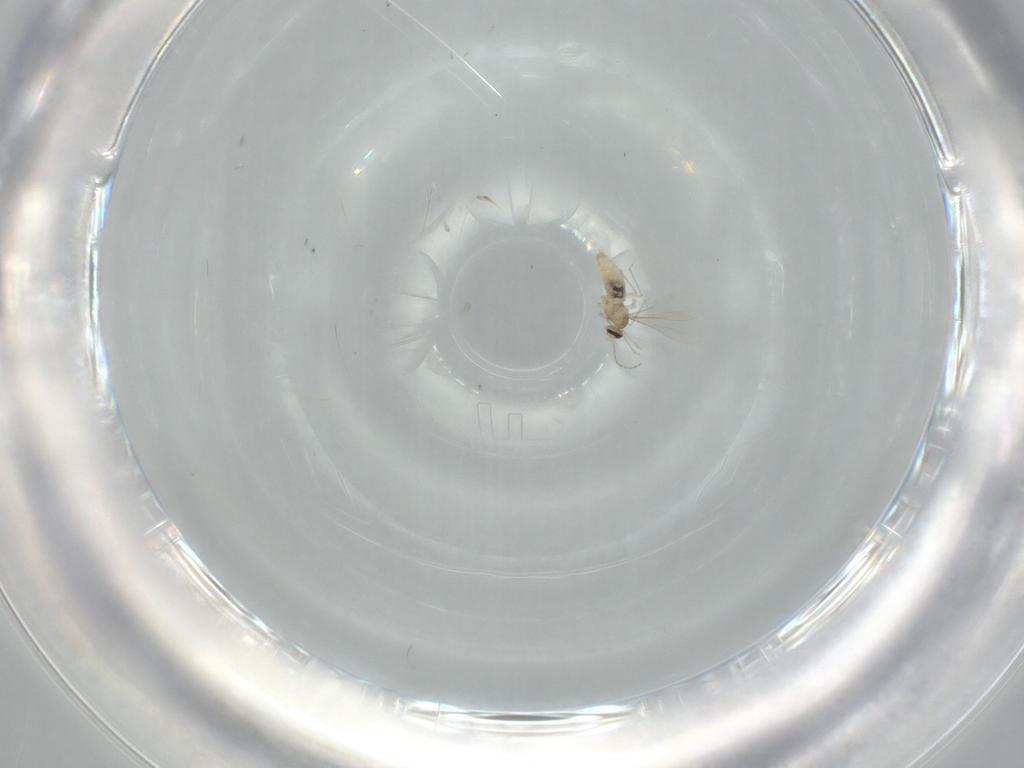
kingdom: Animalia
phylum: Arthropoda
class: Insecta
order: Diptera
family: Cecidomyiidae
